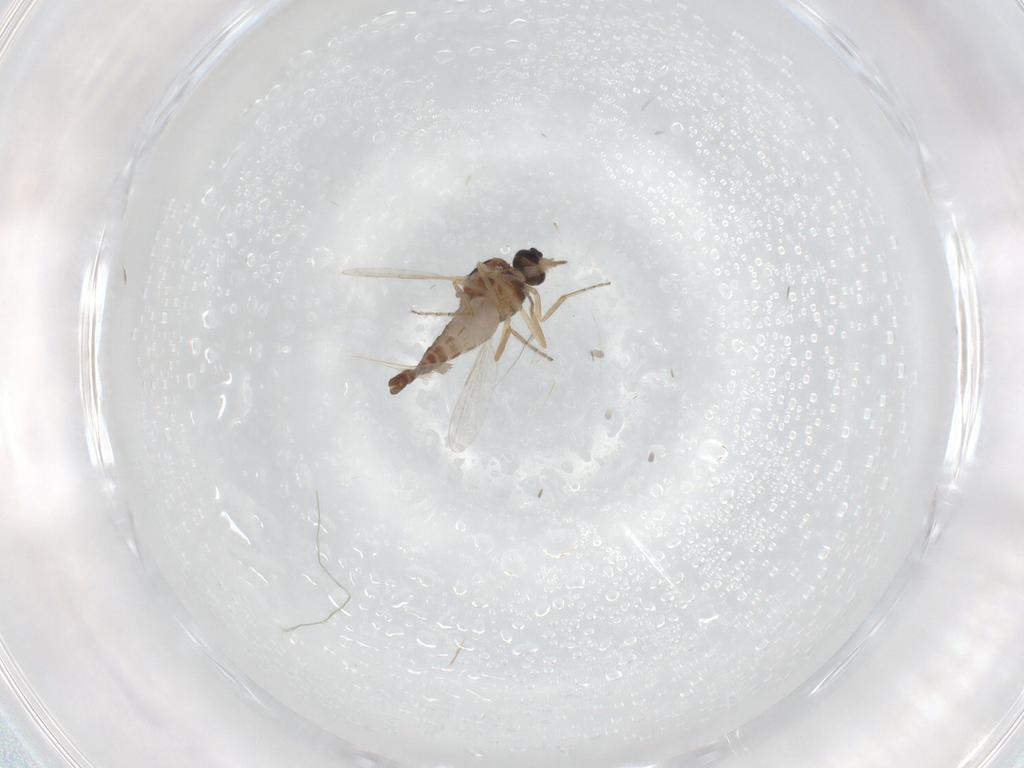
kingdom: Animalia
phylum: Arthropoda
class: Insecta
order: Diptera
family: Ceratopogonidae
